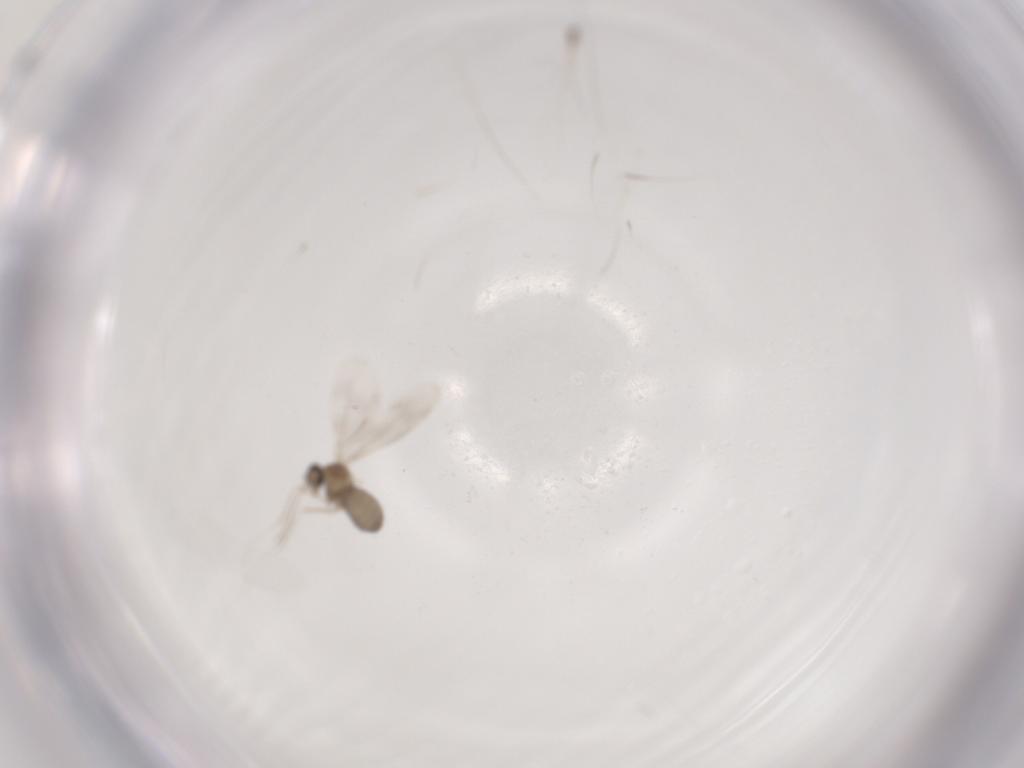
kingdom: Animalia
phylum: Arthropoda
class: Insecta
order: Diptera
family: Cecidomyiidae
